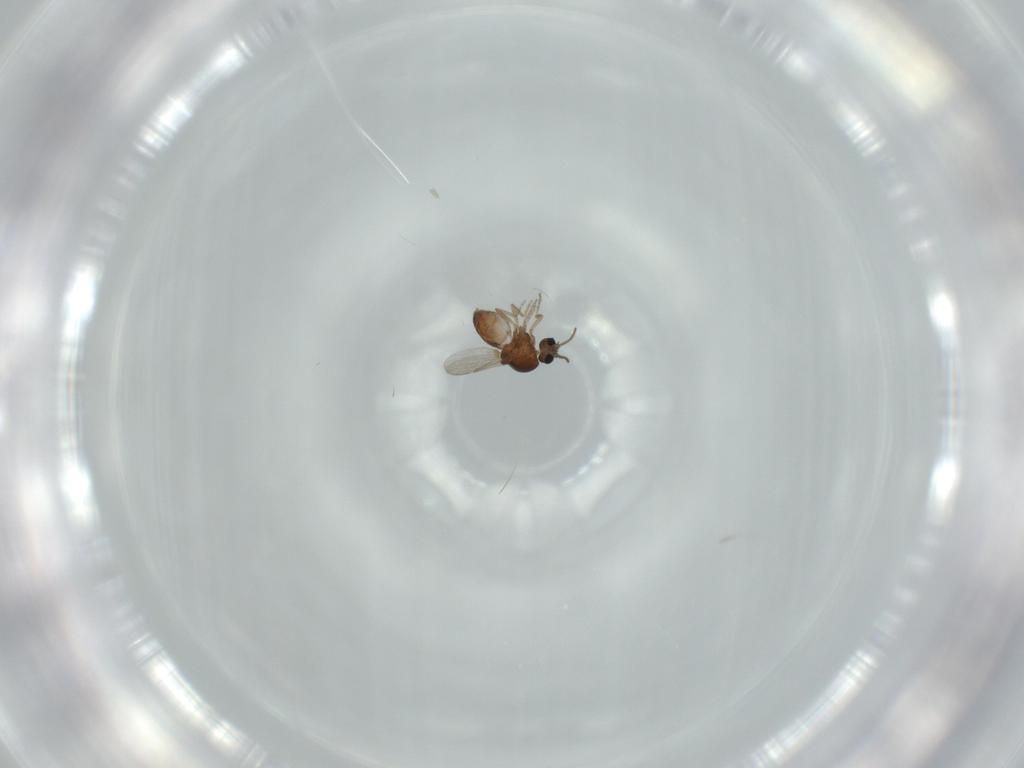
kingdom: Animalia
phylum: Arthropoda
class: Insecta
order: Diptera
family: Ceratopogonidae
